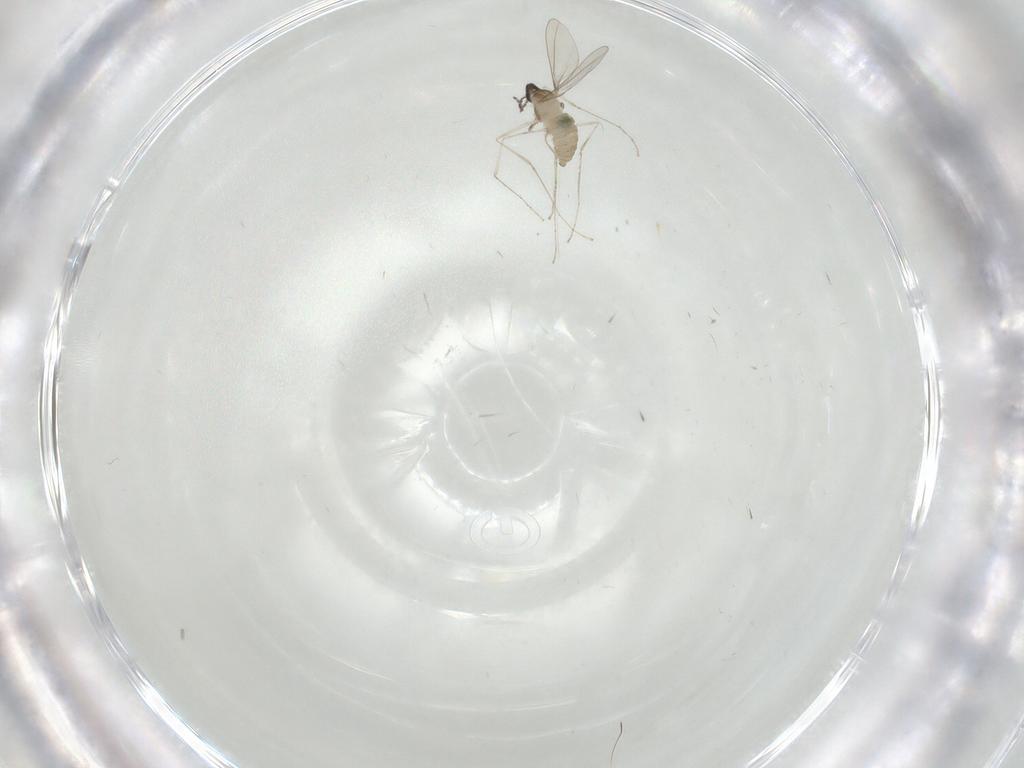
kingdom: Animalia
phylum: Arthropoda
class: Insecta
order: Diptera
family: Cecidomyiidae
